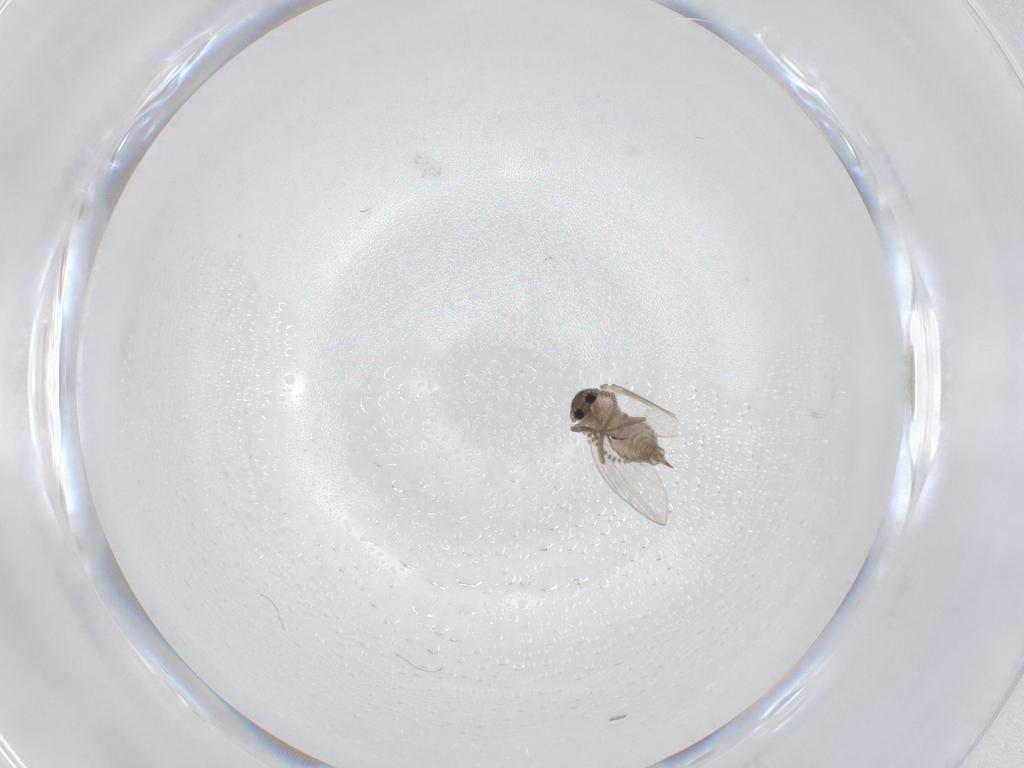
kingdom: Animalia
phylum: Arthropoda
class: Insecta
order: Diptera
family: Psychodidae
